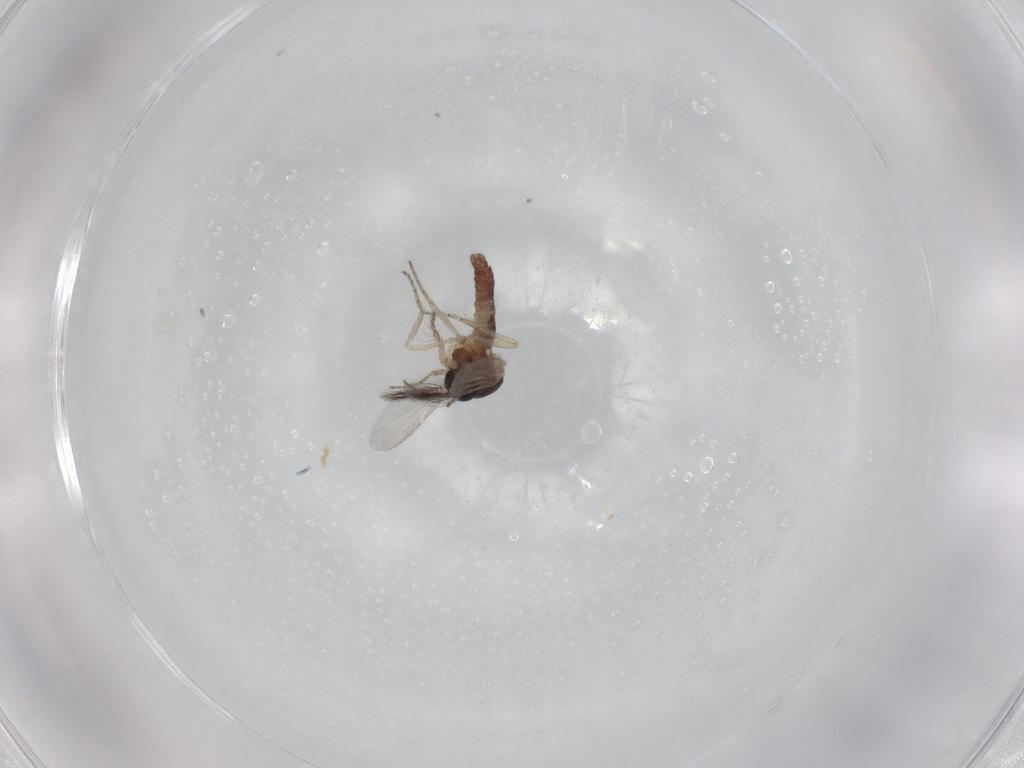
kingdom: Animalia
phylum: Arthropoda
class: Insecta
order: Diptera
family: Ceratopogonidae
